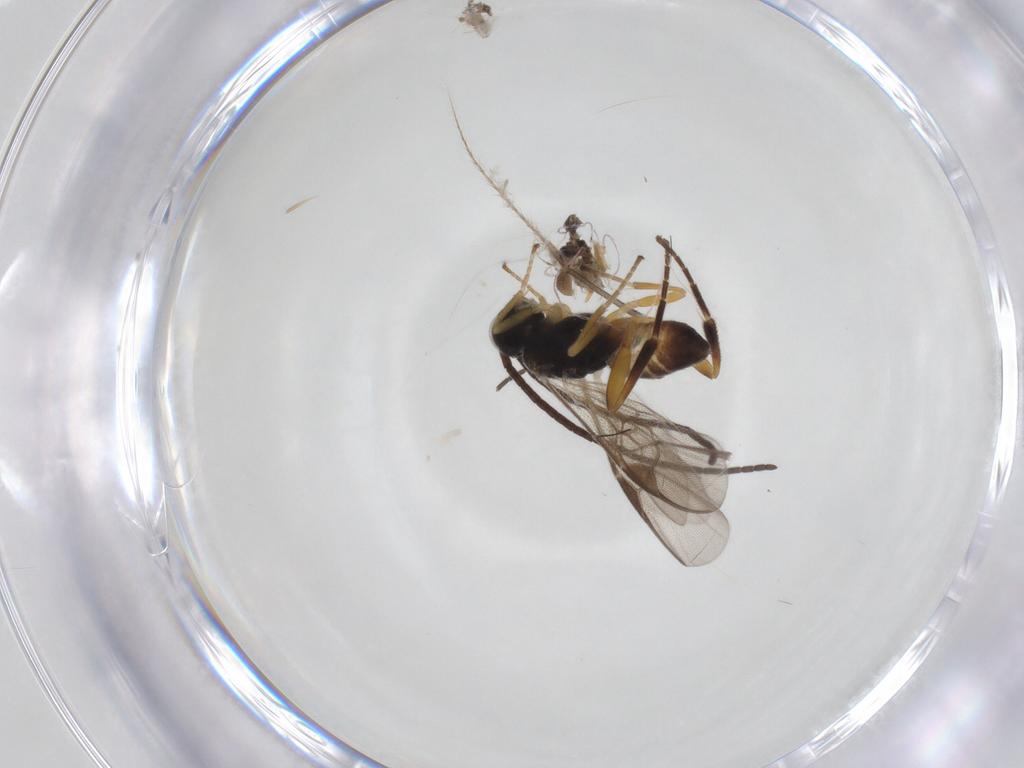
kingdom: Animalia
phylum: Arthropoda
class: Insecta
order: Hymenoptera
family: Braconidae
